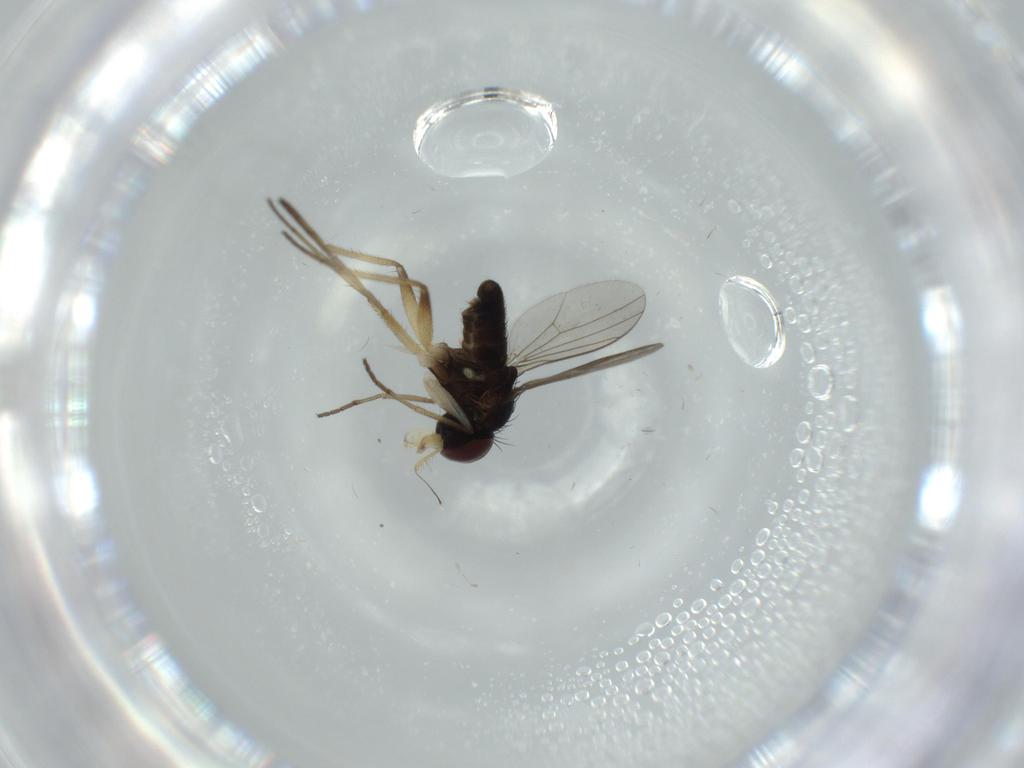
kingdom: Animalia
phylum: Arthropoda
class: Insecta
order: Diptera
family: Dolichopodidae
